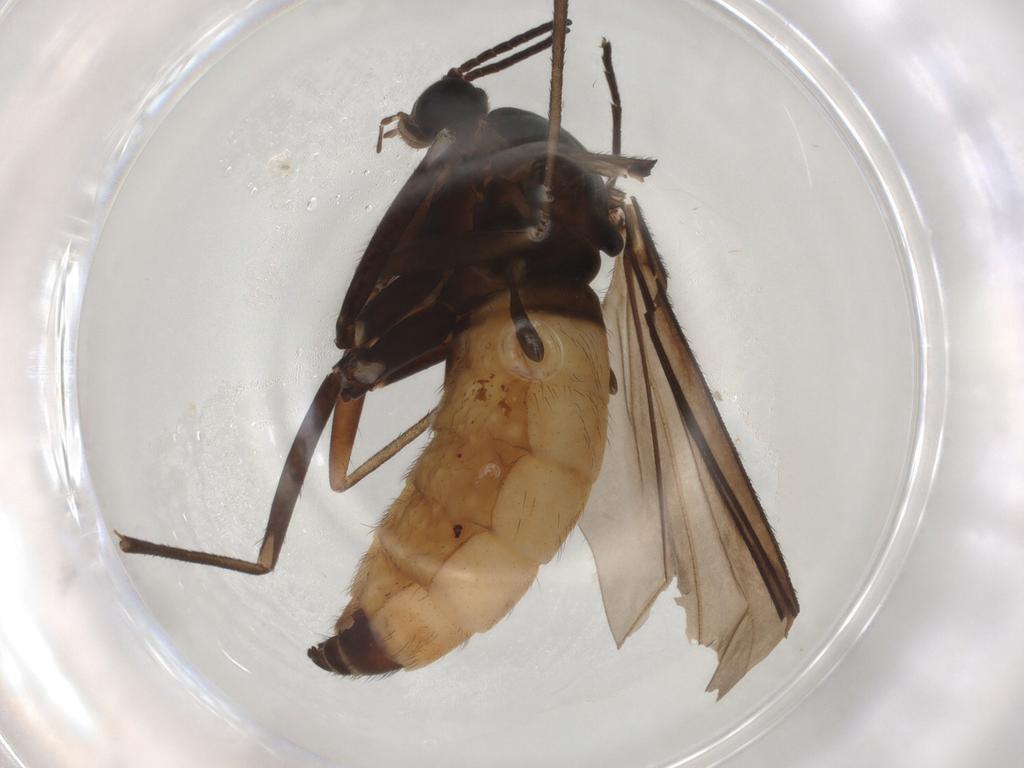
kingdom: Animalia
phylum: Arthropoda
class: Insecta
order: Diptera
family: Sciaridae
